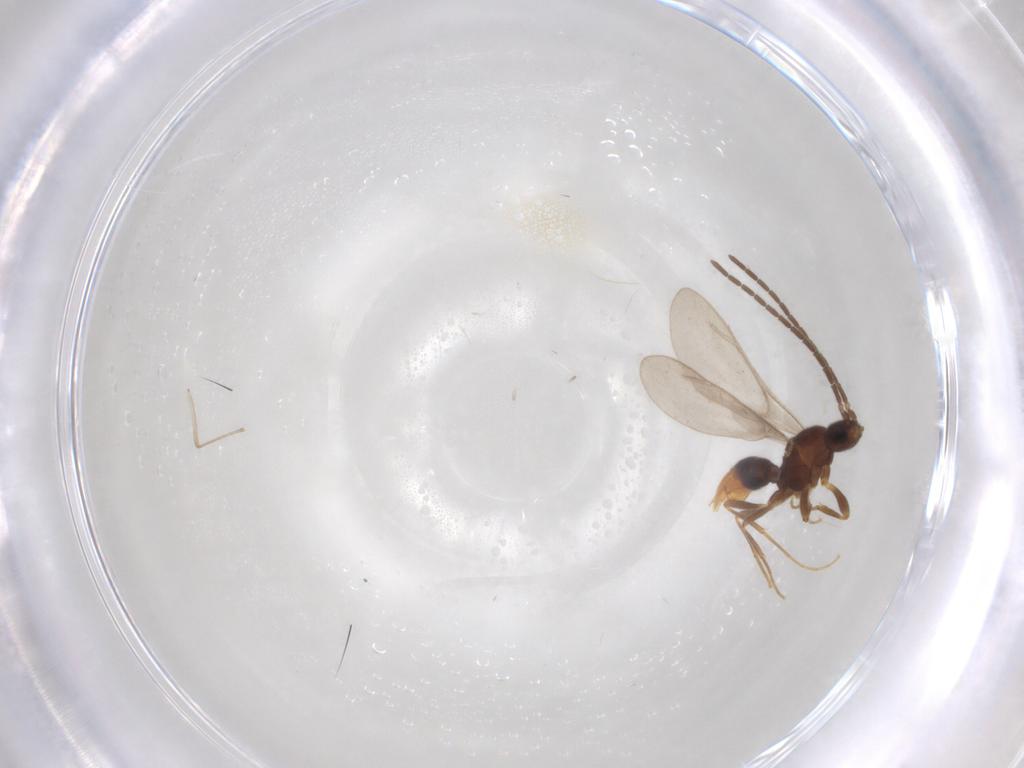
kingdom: Animalia
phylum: Arthropoda
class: Insecta
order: Hymenoptera
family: Formicidae
